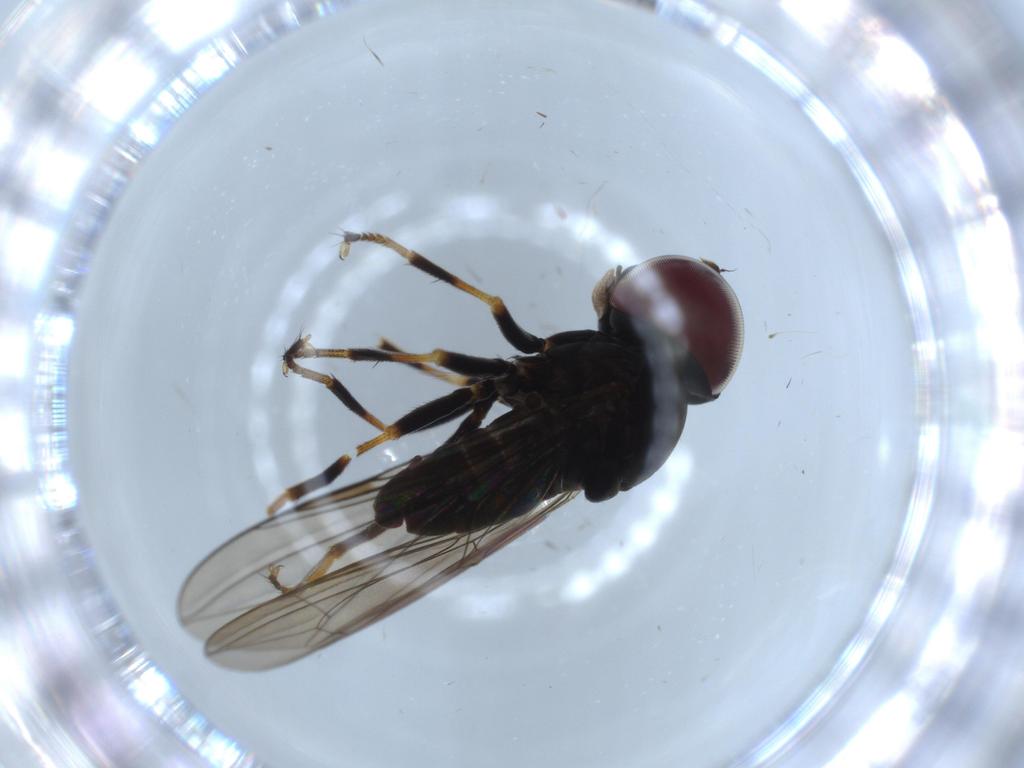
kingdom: Animalia
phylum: Arthropoda
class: Insecta
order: Diptera
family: Pipunculidae
